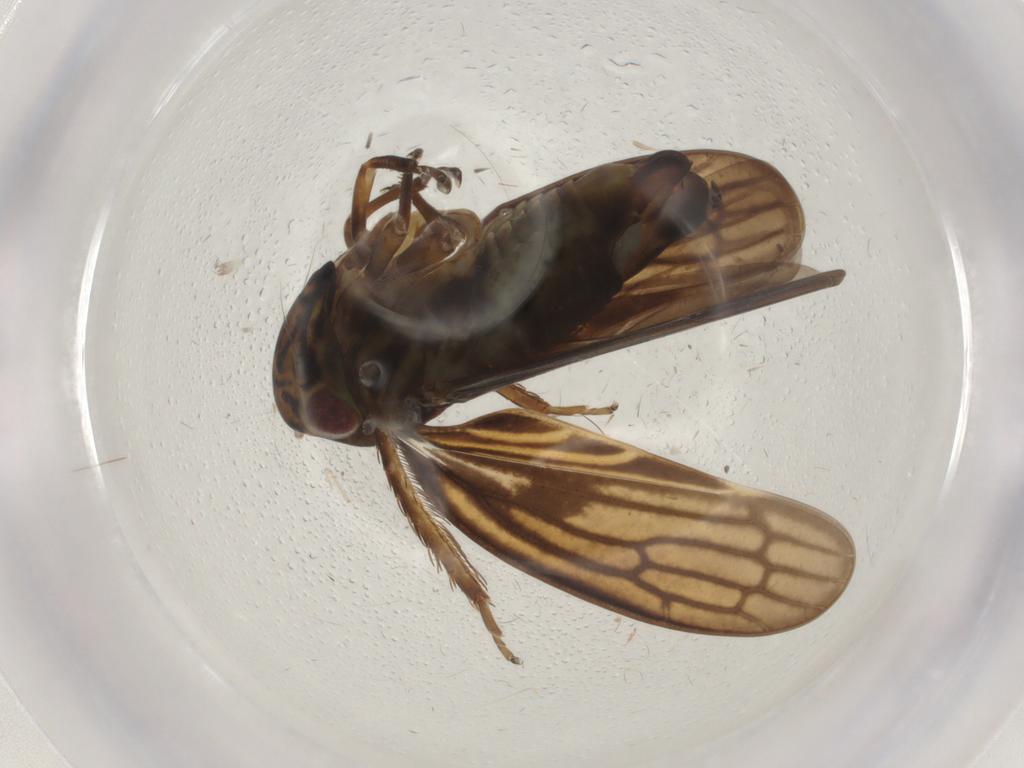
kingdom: Animalia
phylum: Arthropoda
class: Insecta
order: Hemiptera
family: Cicadellidae
